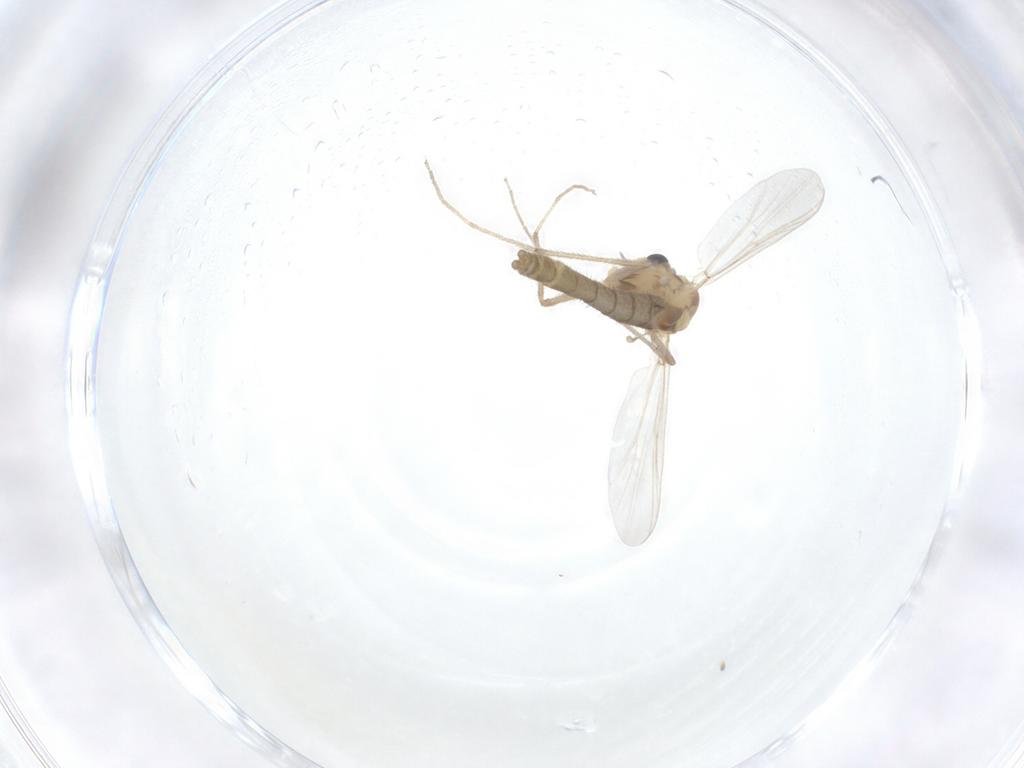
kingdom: Animalia
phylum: Arthropoda
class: Insecta
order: Diptera
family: Chironomidae
